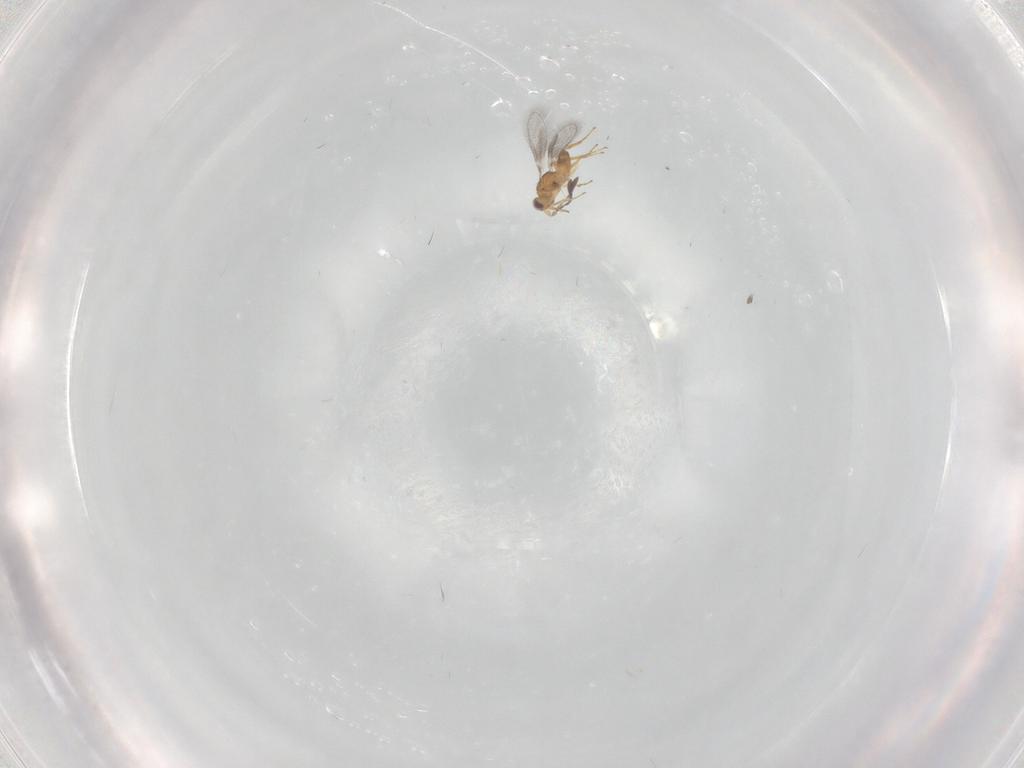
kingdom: Animalia
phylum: Arthropoda
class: Insecta
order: Hymenoptera
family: Mymaridae
